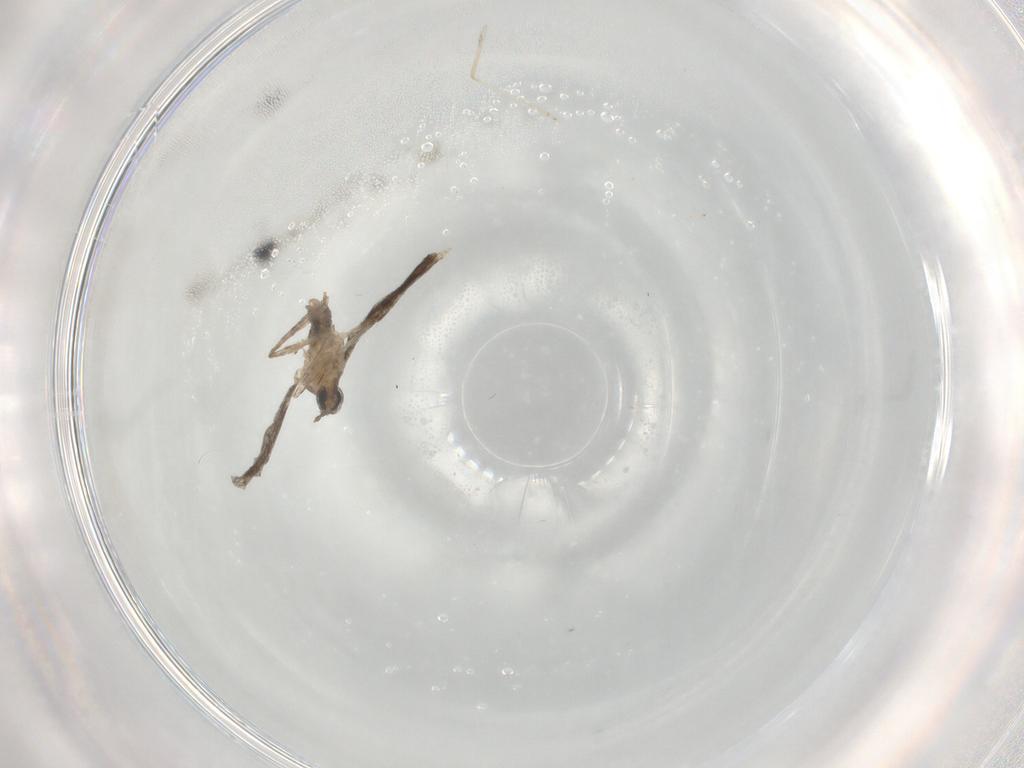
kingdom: Animalia
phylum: Arthropoda
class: Insecta
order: Diptera
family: Cecidomyiidae
